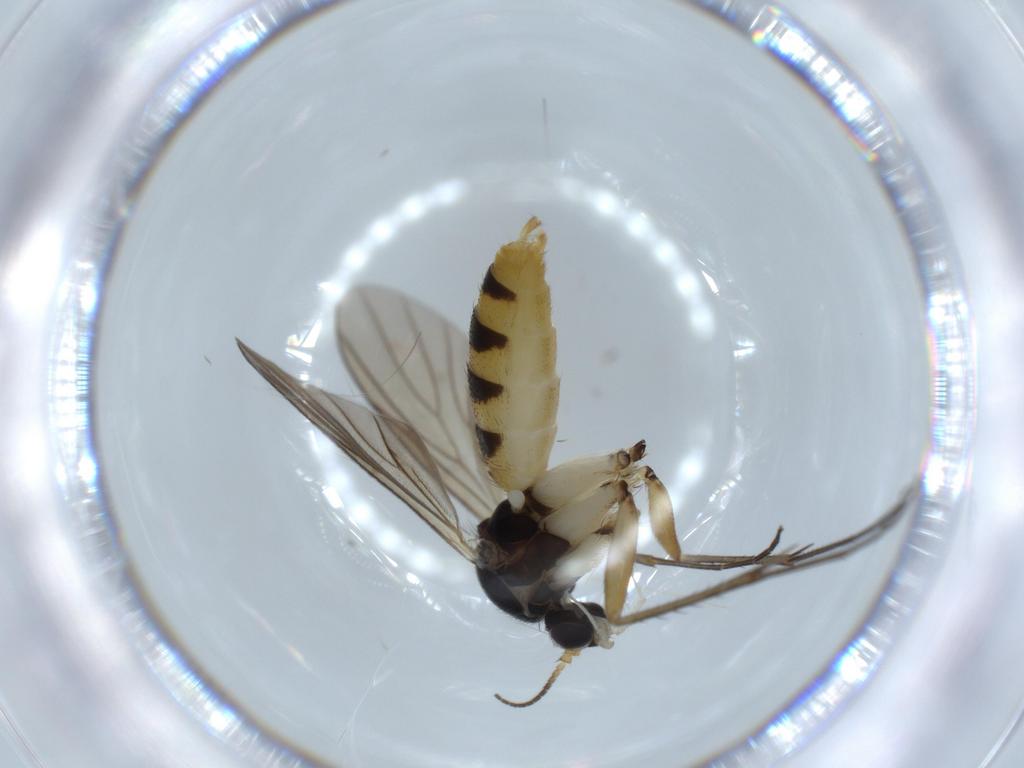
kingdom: Animalia
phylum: Arthropoda
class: Insecta
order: Diptera
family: Mycetophilidae
